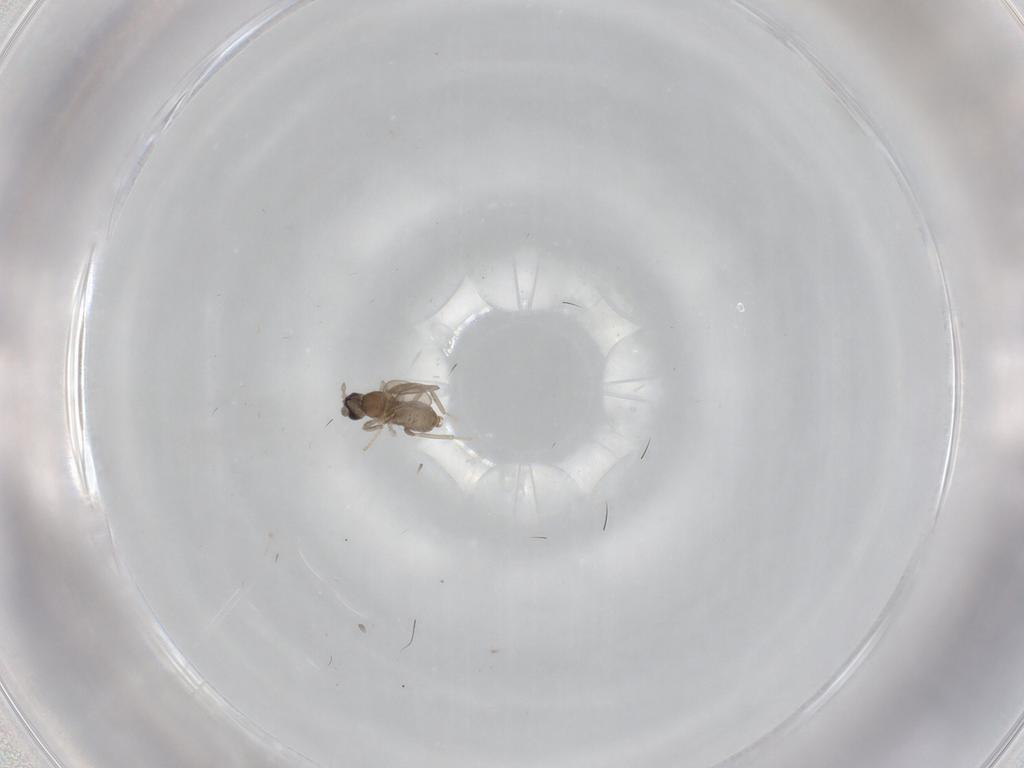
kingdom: Animalia
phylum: Arthropoda
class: Insecta
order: Diptera
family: Cecidomyiidae
